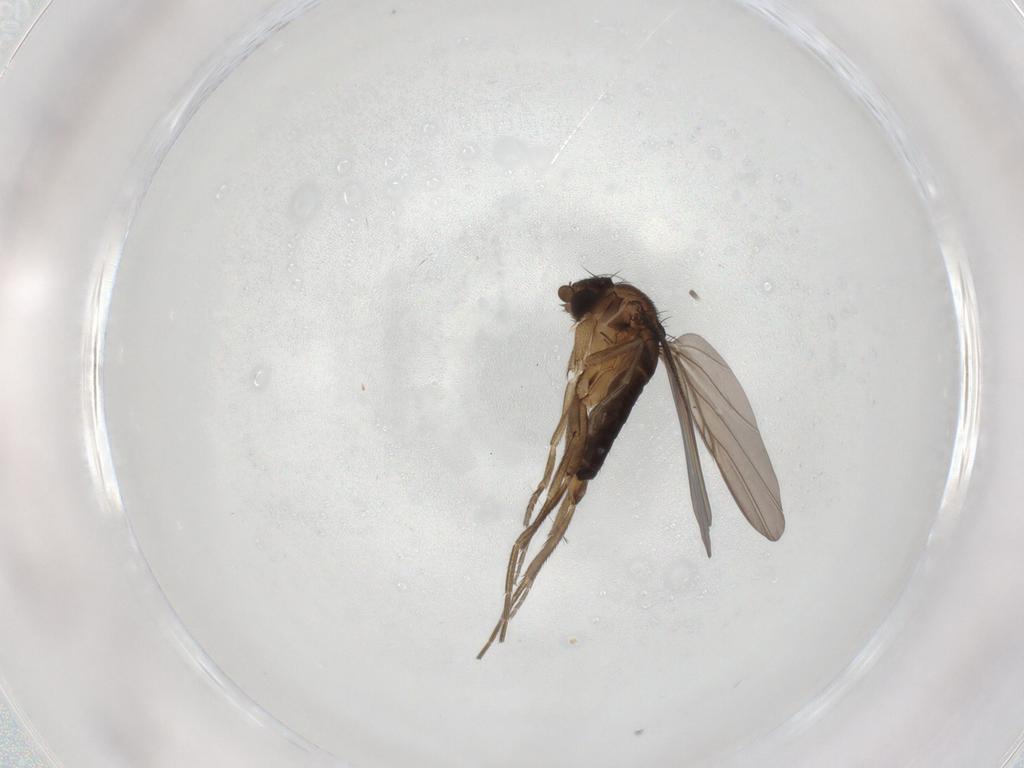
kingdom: Animalia
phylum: Arthropoda
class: Insecta
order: Diptera
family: Phoridae
